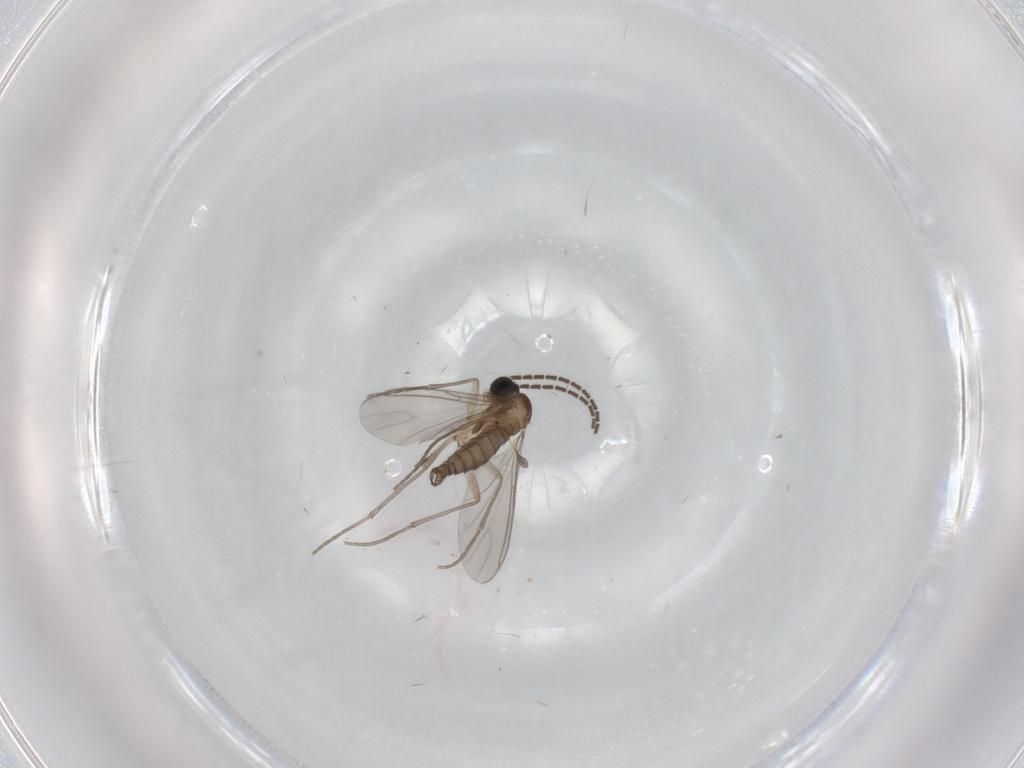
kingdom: Animalia
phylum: Arthropoda
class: Insecta
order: Diptera
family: Sciaridae
